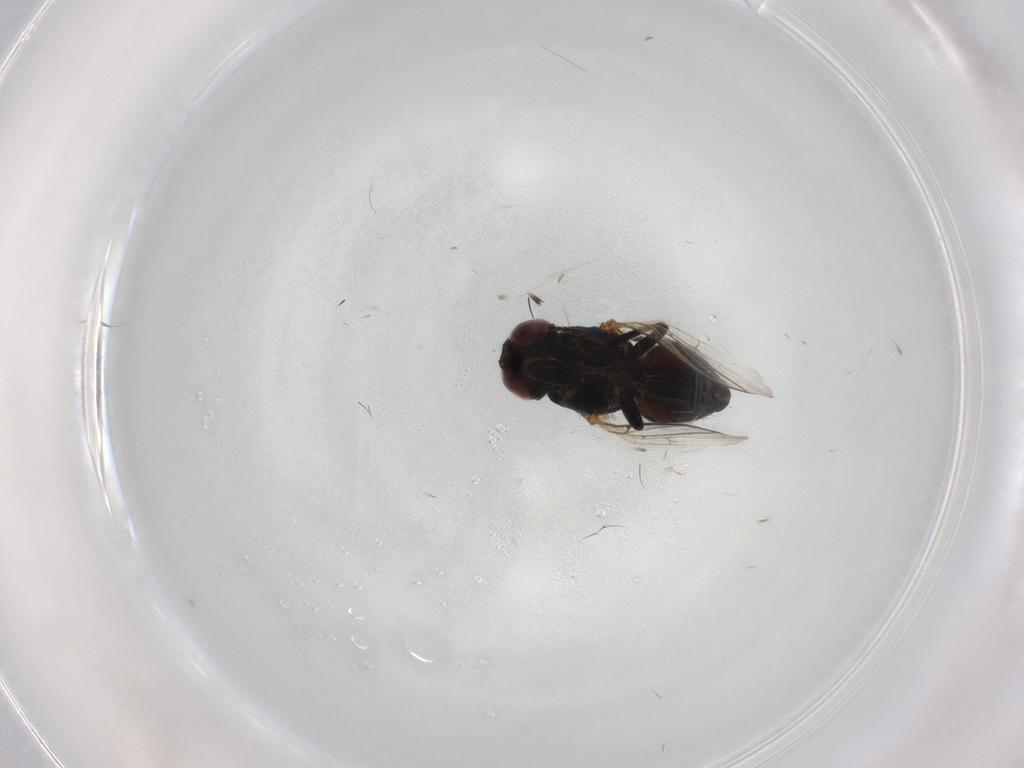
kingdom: Animalia
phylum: Arthropoda
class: Insecta
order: Diptera
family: Agromyzidae
